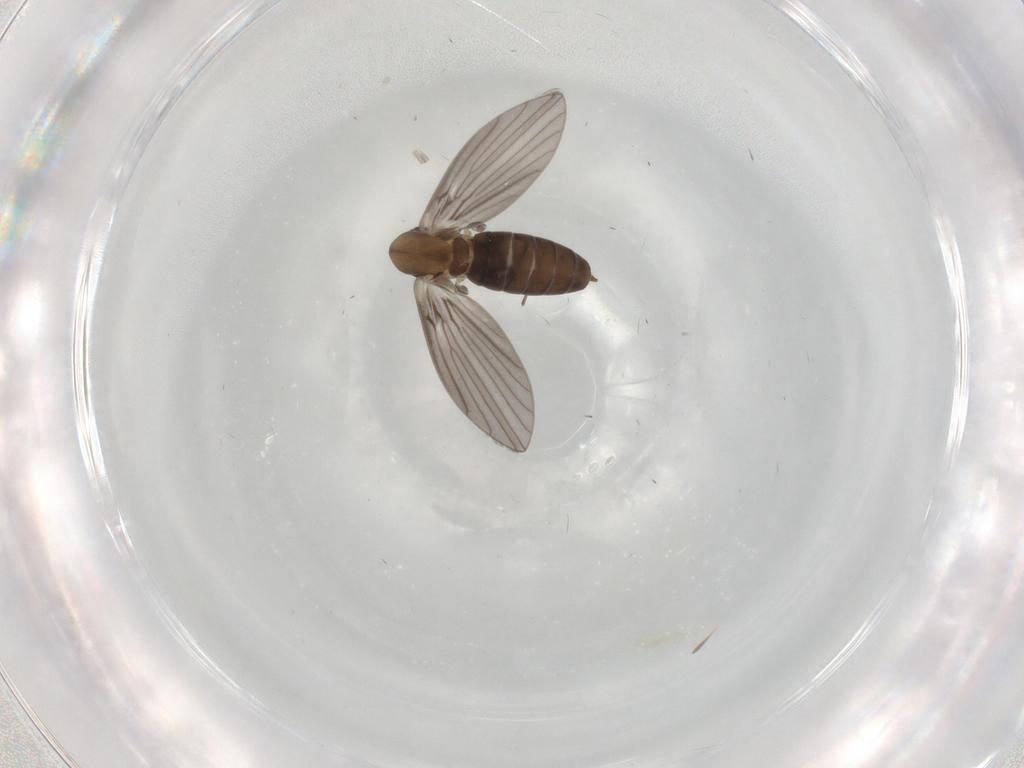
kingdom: Animalia
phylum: Arthropoda
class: Insecta
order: Diptera
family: Psychodidae
